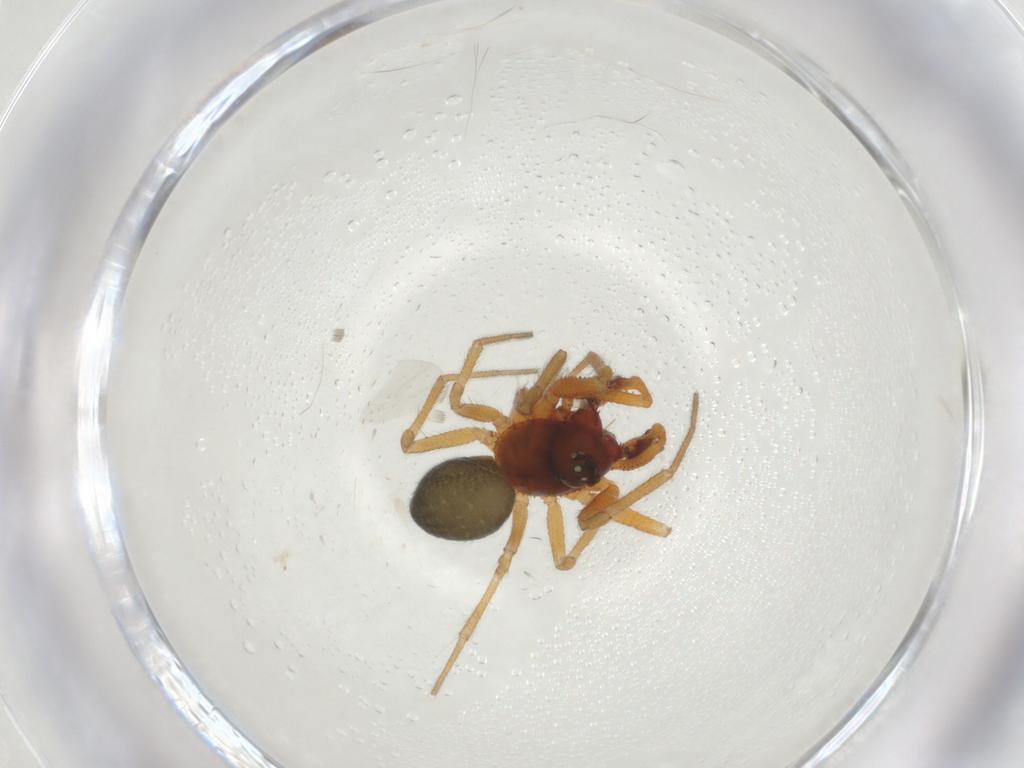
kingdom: Animalia
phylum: Arthropoda
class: Arachnida
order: Araneae
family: Linyphiidae
